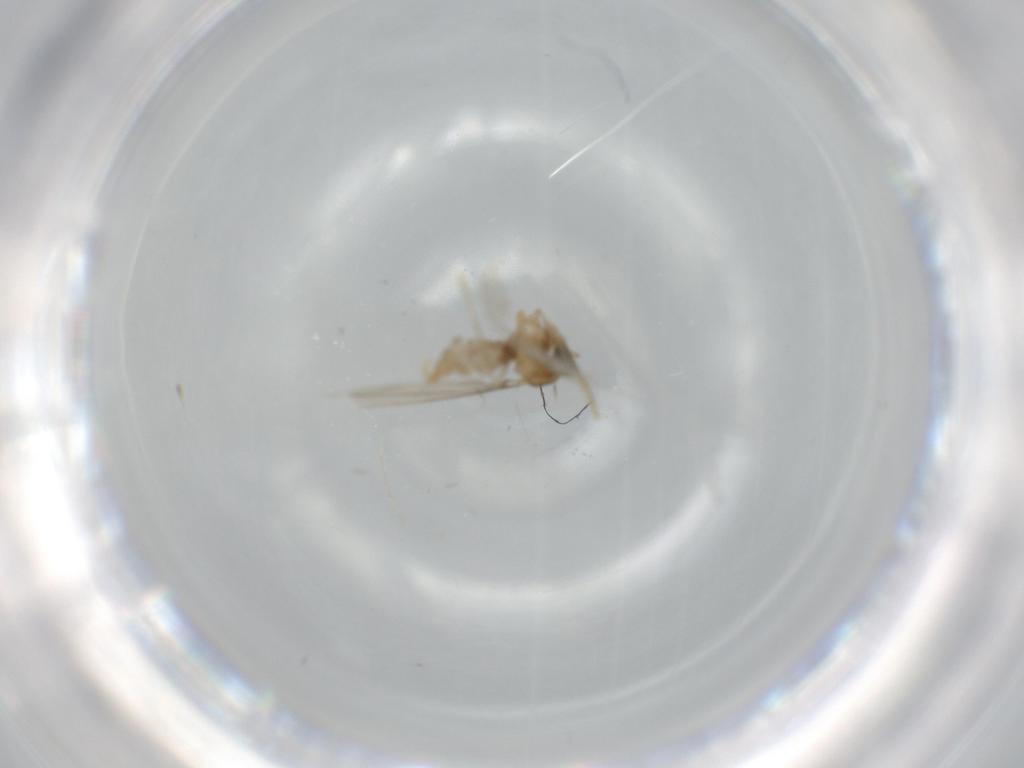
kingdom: Animalia
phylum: Arthropoda
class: Insecta
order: Diptera
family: Cecidomyiidae
